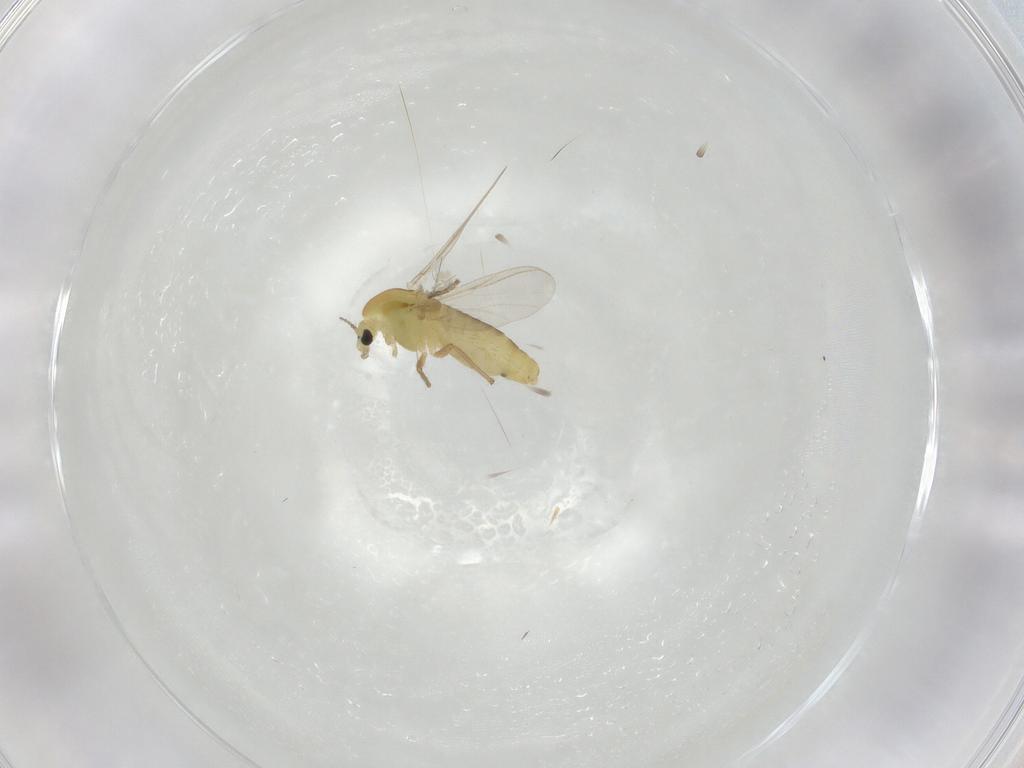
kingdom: Animalia
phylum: Arthropoda
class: Insecta
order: Diptera
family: Chironomidae
